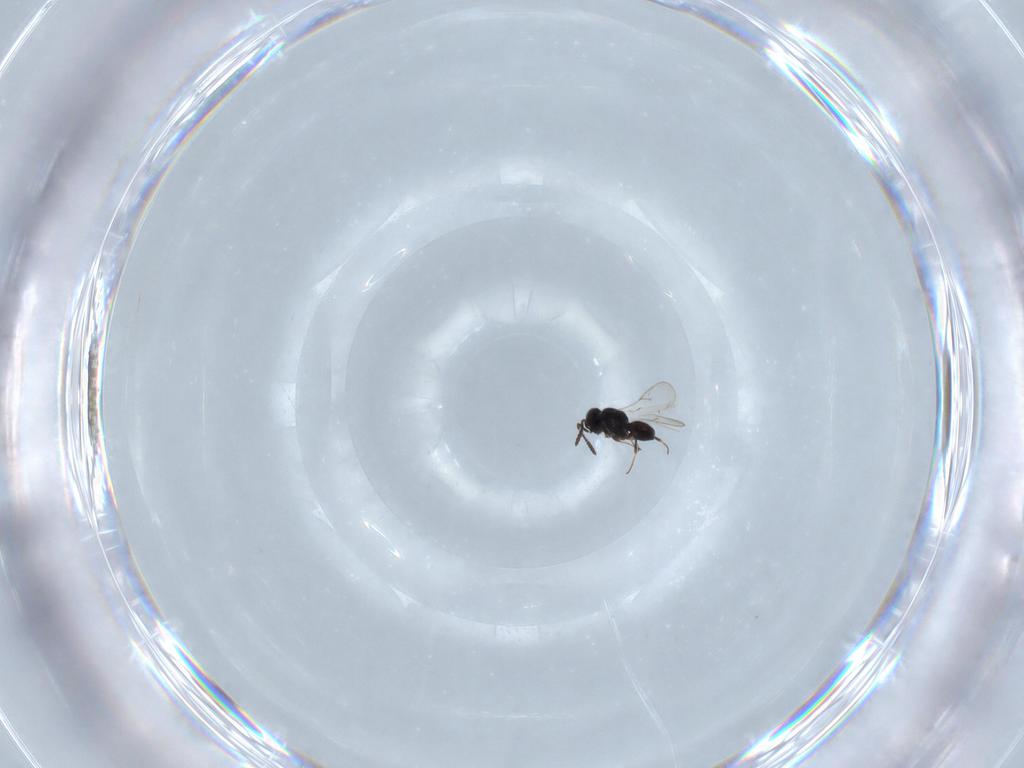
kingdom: Animalia
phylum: Arthropoda
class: Insecta
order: Hymenoptera
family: Scelionidae
